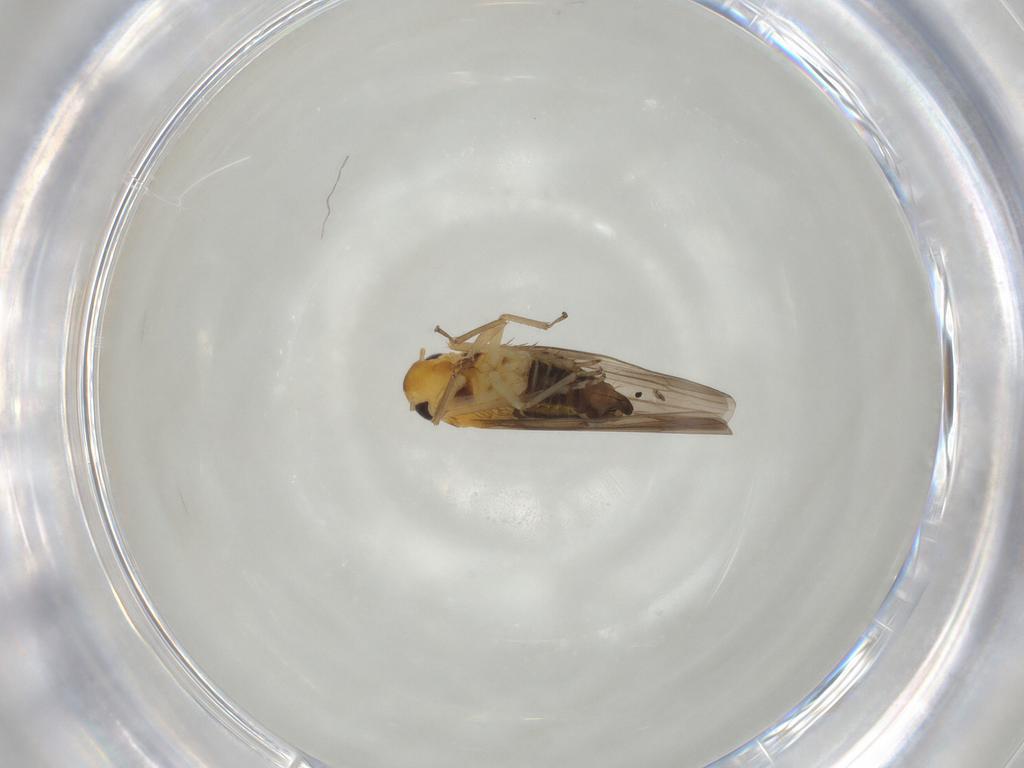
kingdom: Animalia
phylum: Arthropoda
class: Insecta
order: Hemiptera
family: Cicadellidae
